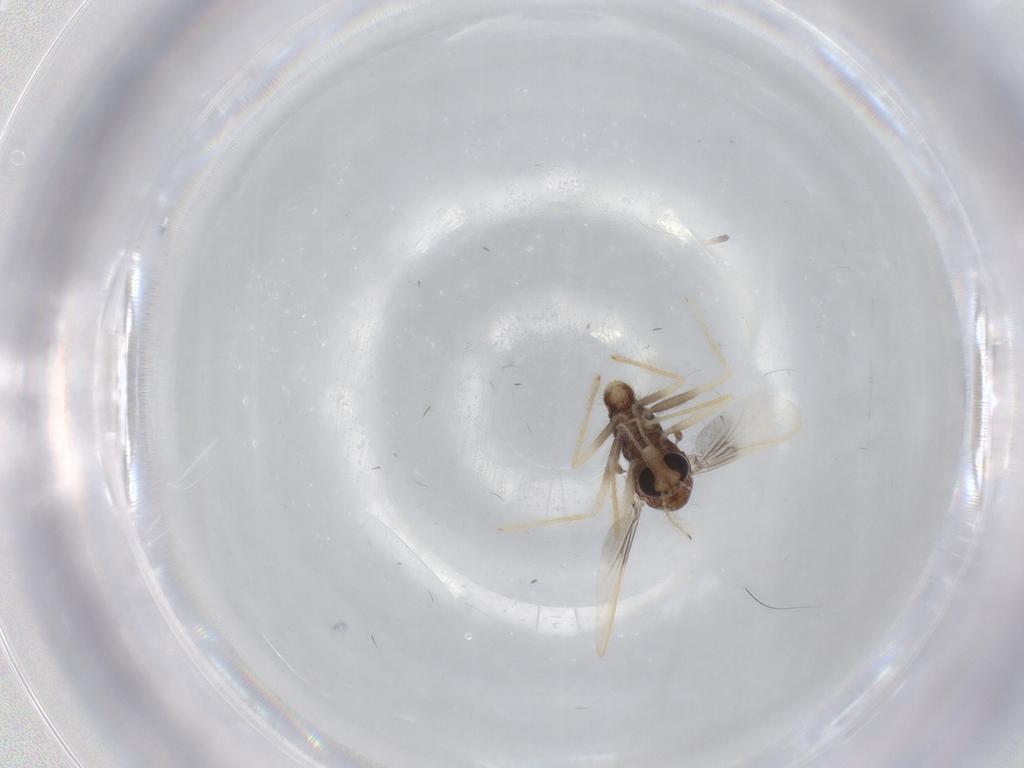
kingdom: Animalia
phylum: Arthropoda
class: Insecta
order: Diptera
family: Chironomidae
